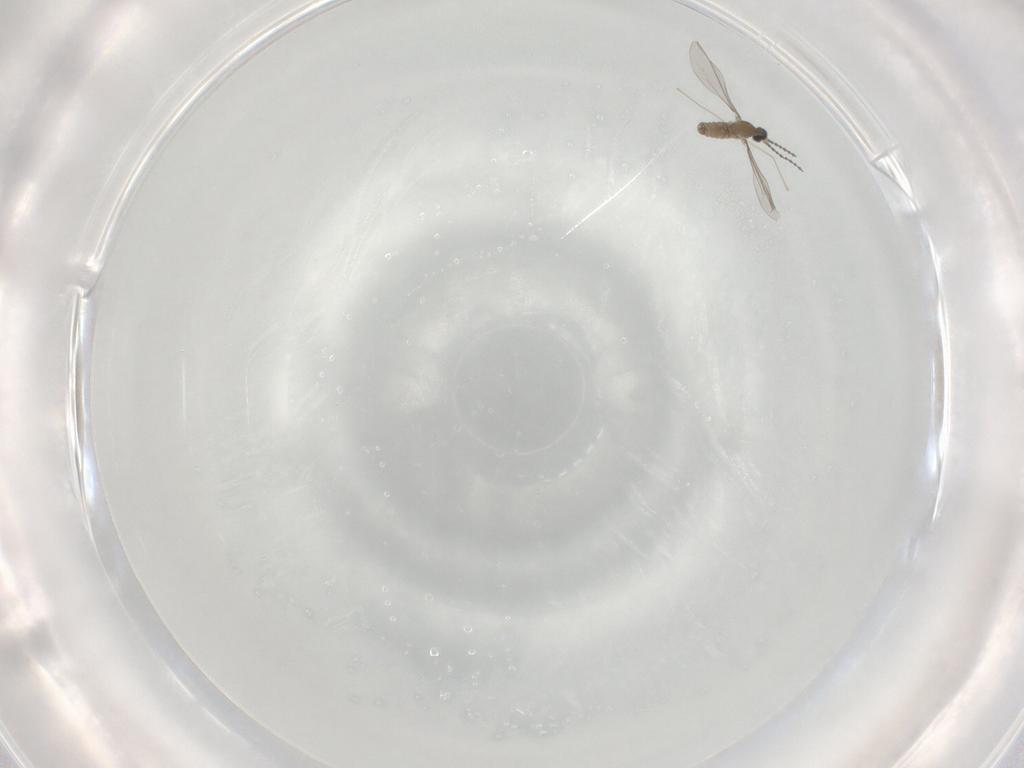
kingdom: Animalia
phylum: Arthropoda
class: Insecta
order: Diptera
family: Cecidomyiidae
